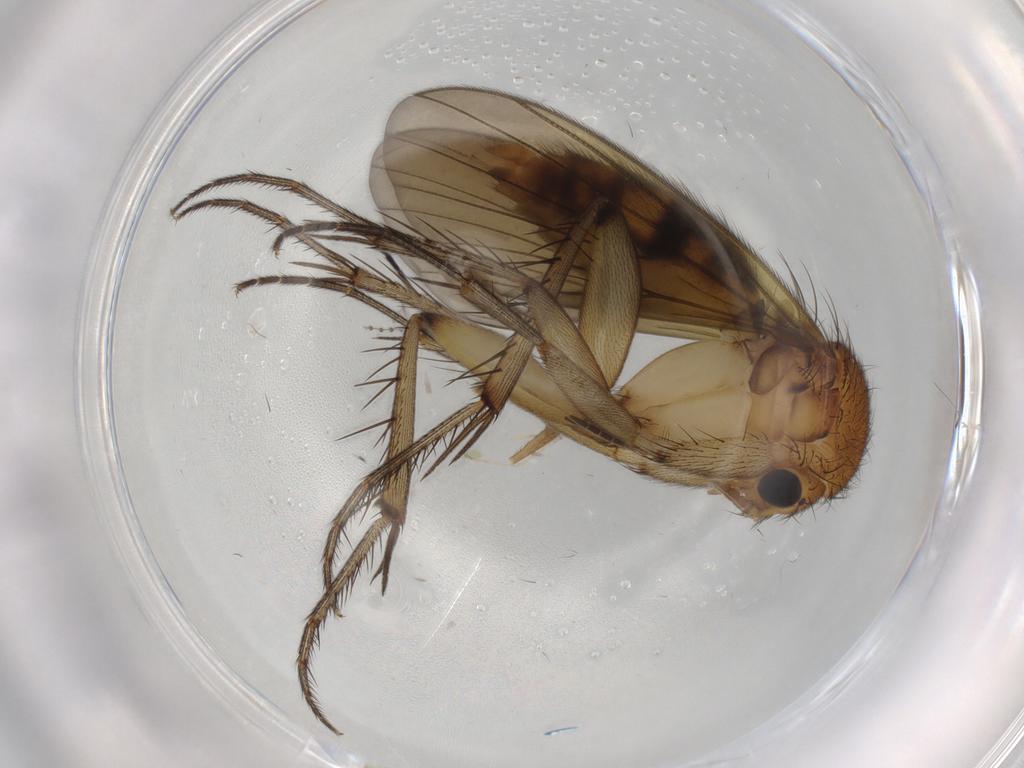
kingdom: Animalia
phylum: Arthropoda
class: Insecta
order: Diptera
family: Mycetophilidae
